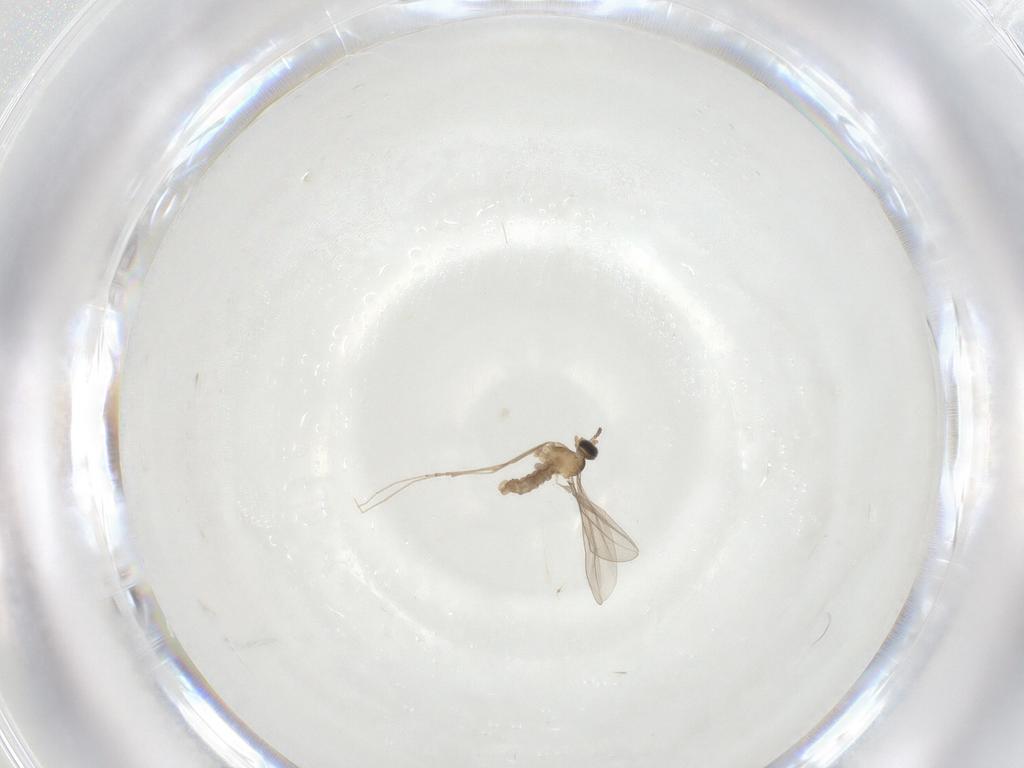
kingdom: Animalia
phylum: Arthropoda
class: Insecta
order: Diptera
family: Cecidomyiidae
